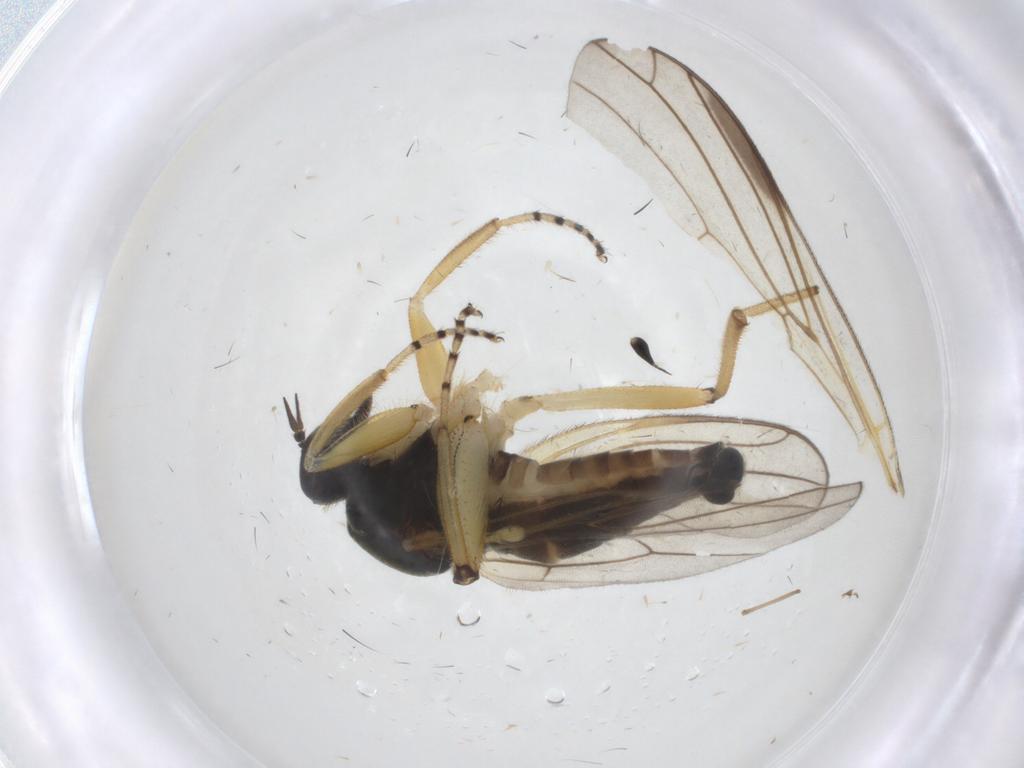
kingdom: Animalia
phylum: Arthropoda
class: Insecta
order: Diptera
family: Hybotidae
